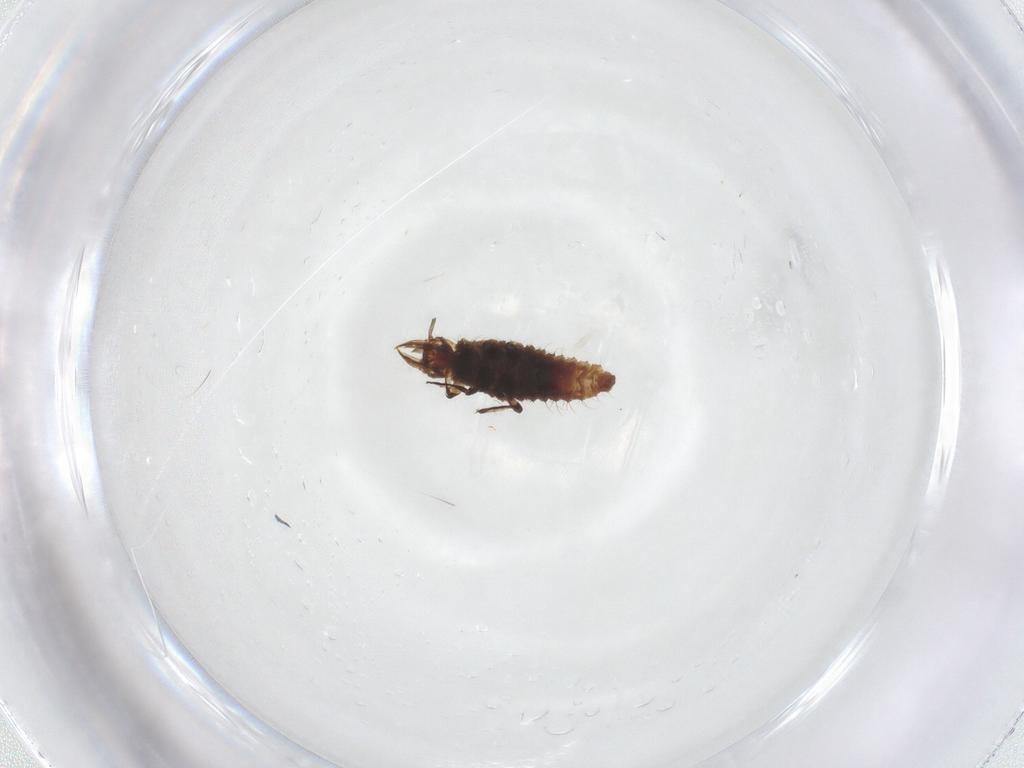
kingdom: Animalia
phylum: Arthropoda
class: Insecta
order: Neuroptera
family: Hemerobiidae
